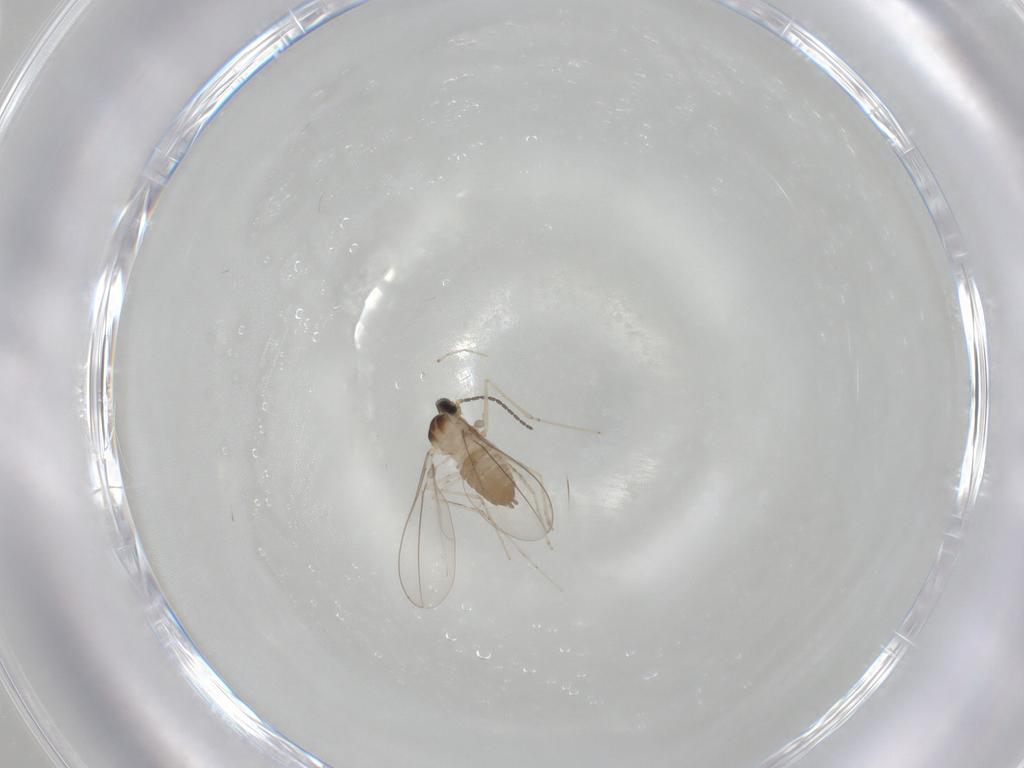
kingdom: Animalia
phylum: Arthropoda
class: Insecta
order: Diptera
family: Cecidomyiidae
